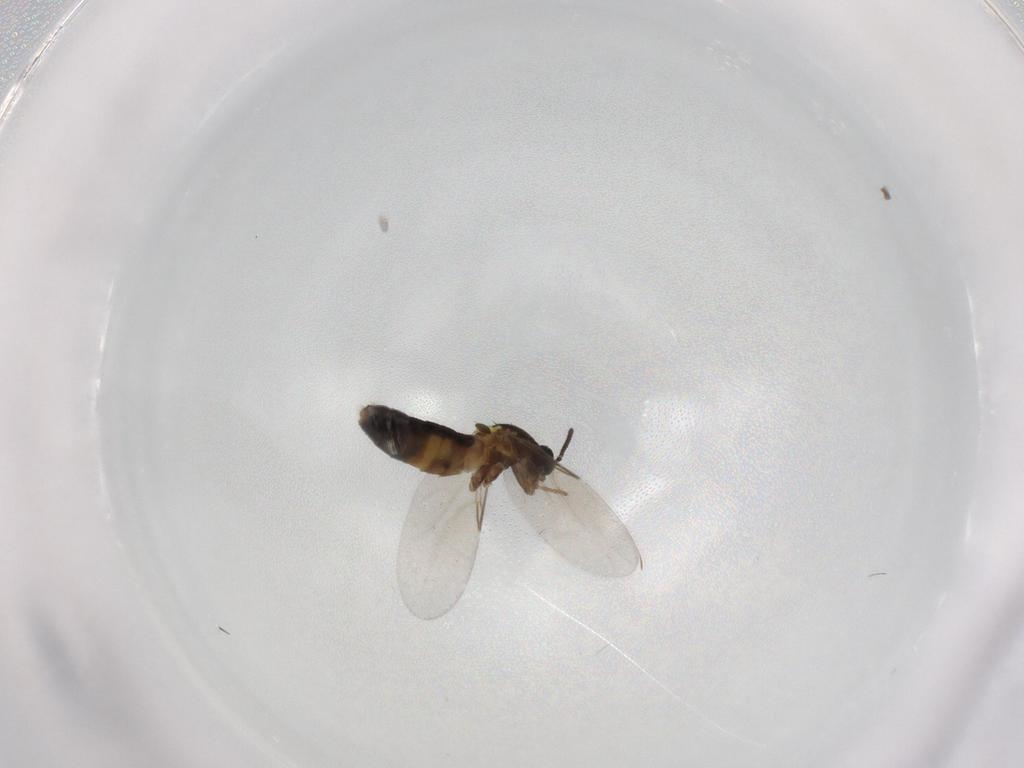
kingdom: Animalia
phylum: Arthropoda
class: Insecta
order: Diptera
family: Scatopsidae
